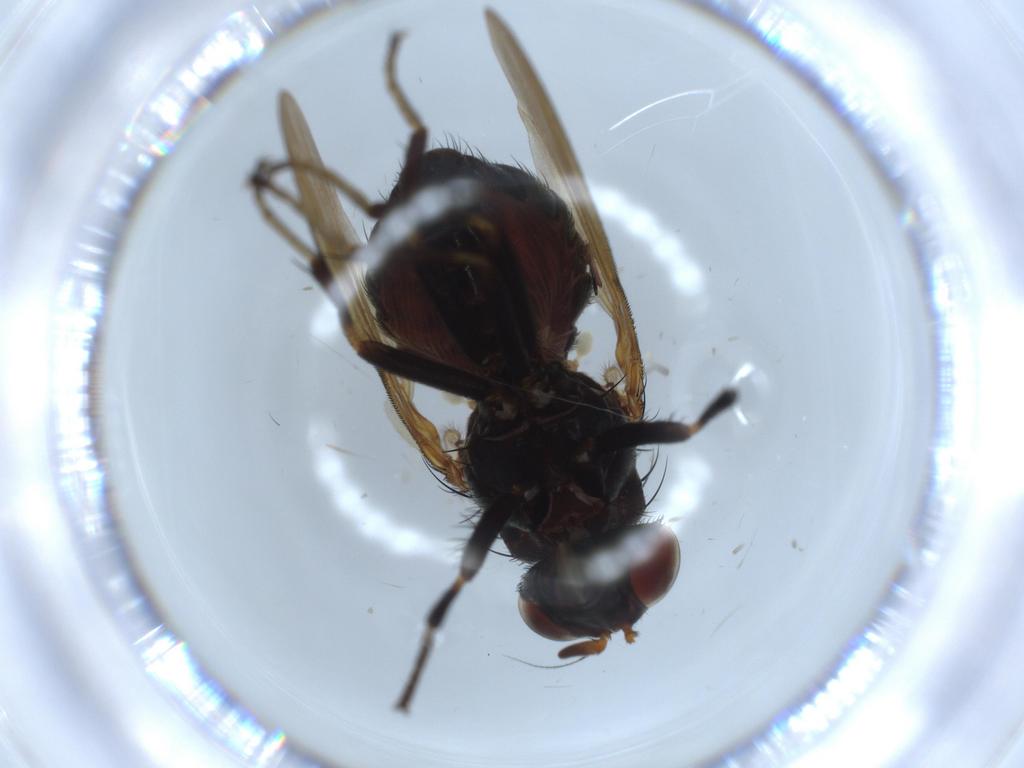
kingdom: Animalia
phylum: Arthropoda
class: Insecta
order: Diptera
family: Lauxaniidae
